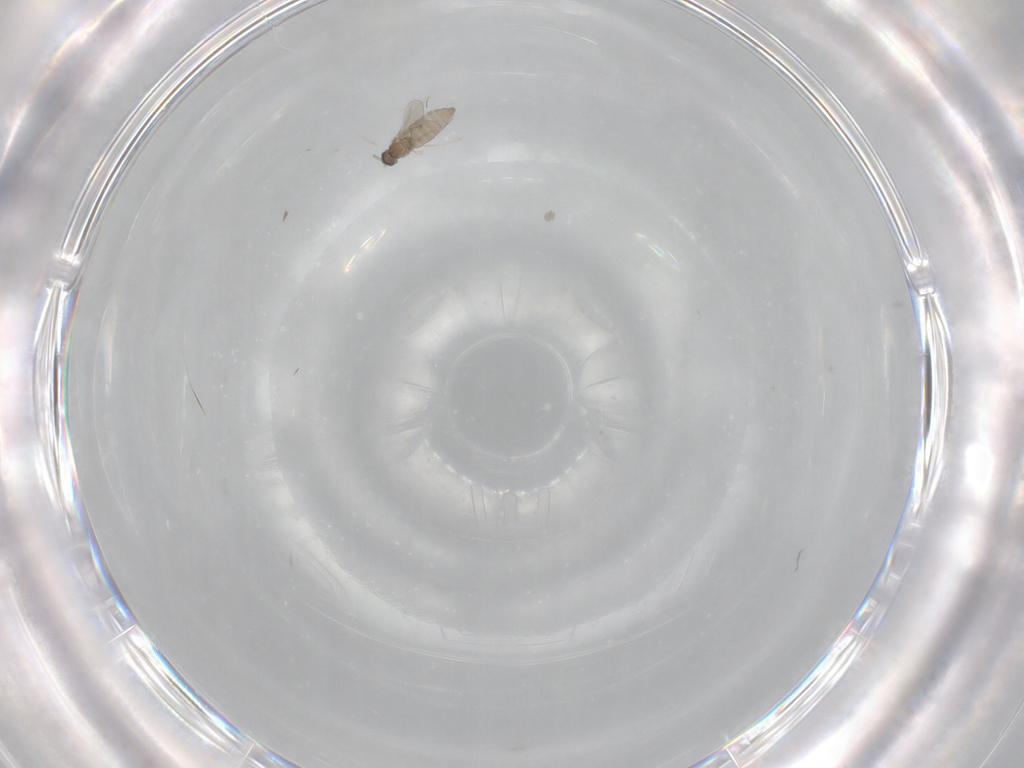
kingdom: Animalia
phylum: Arthropoda
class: Insecta
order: Diptera
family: Cecidomyiidae
